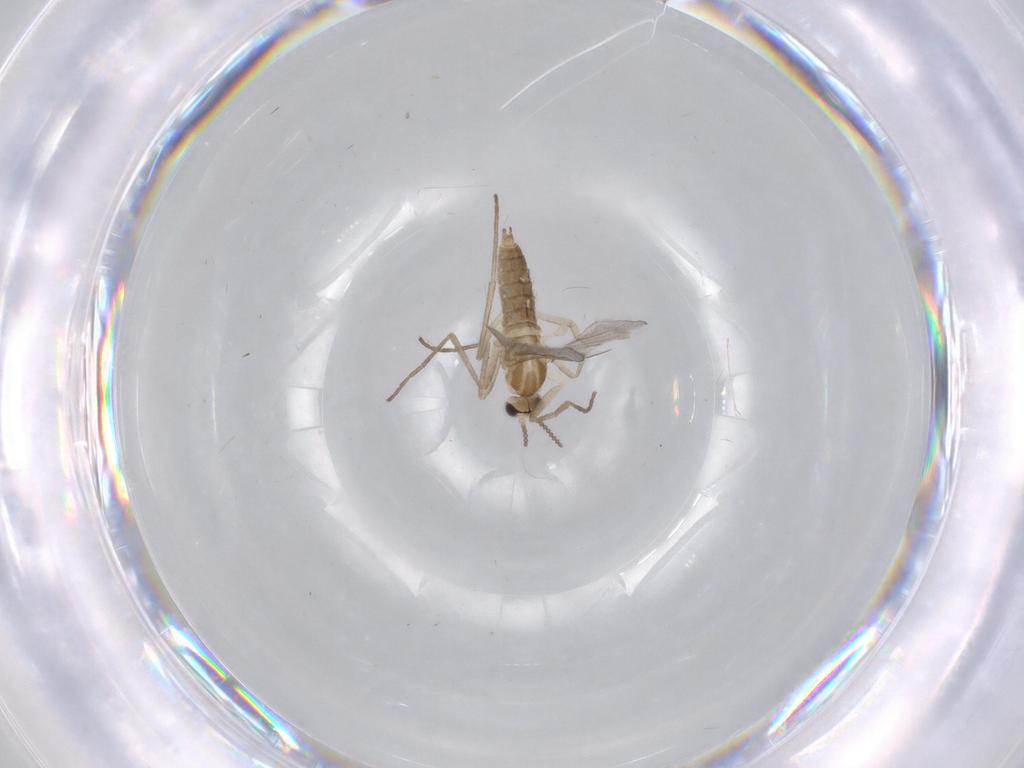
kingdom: Animalia
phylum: Arthropoda
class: Insecta
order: Diptera
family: Cecidomyiidae
